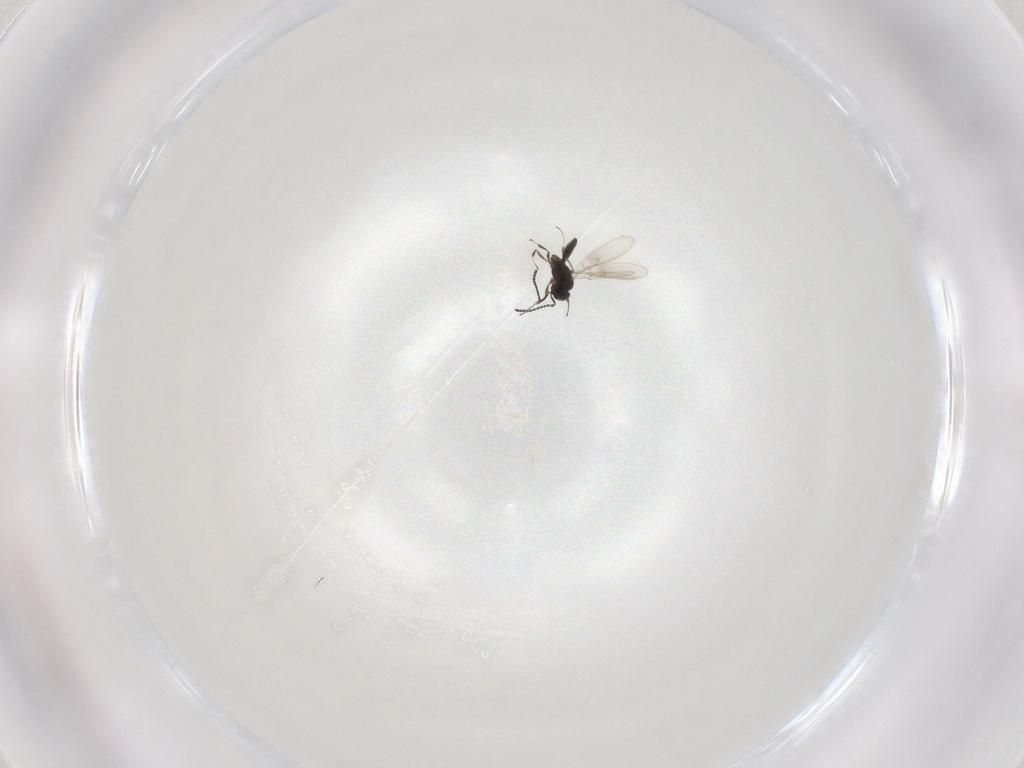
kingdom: Animalia
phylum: Arthropoda
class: Insecta
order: Hymenoptera
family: Scelionidae
